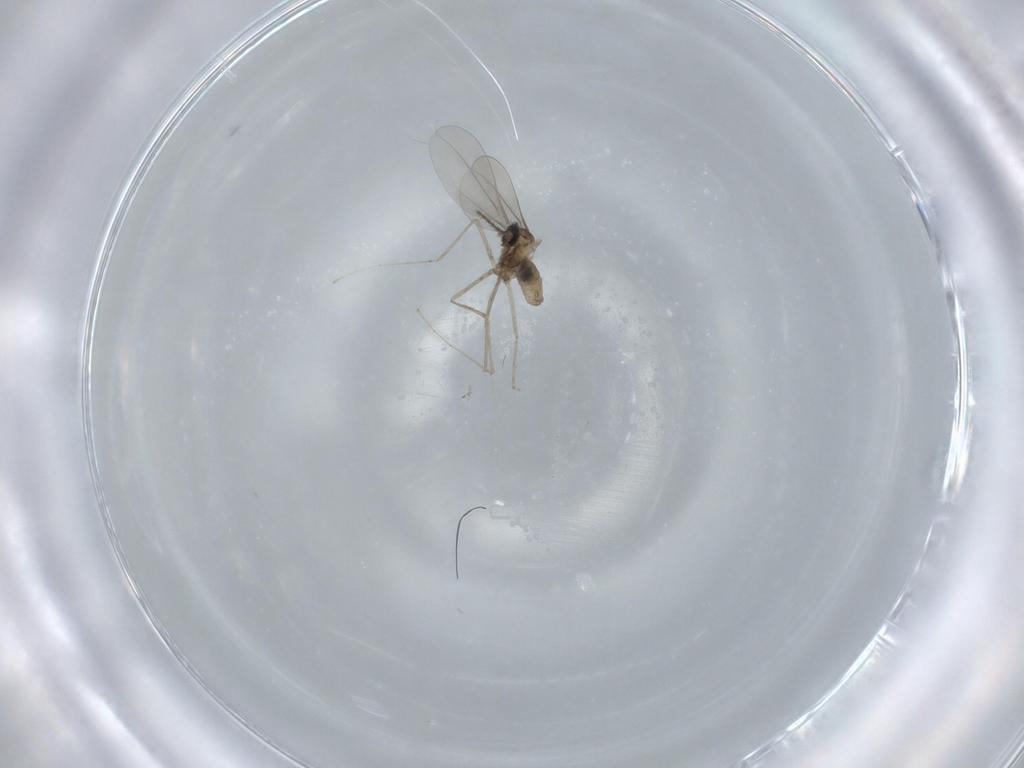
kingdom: Animalia
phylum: Arthropoda
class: Insecta
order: Diptera
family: Cecidomyiidae
